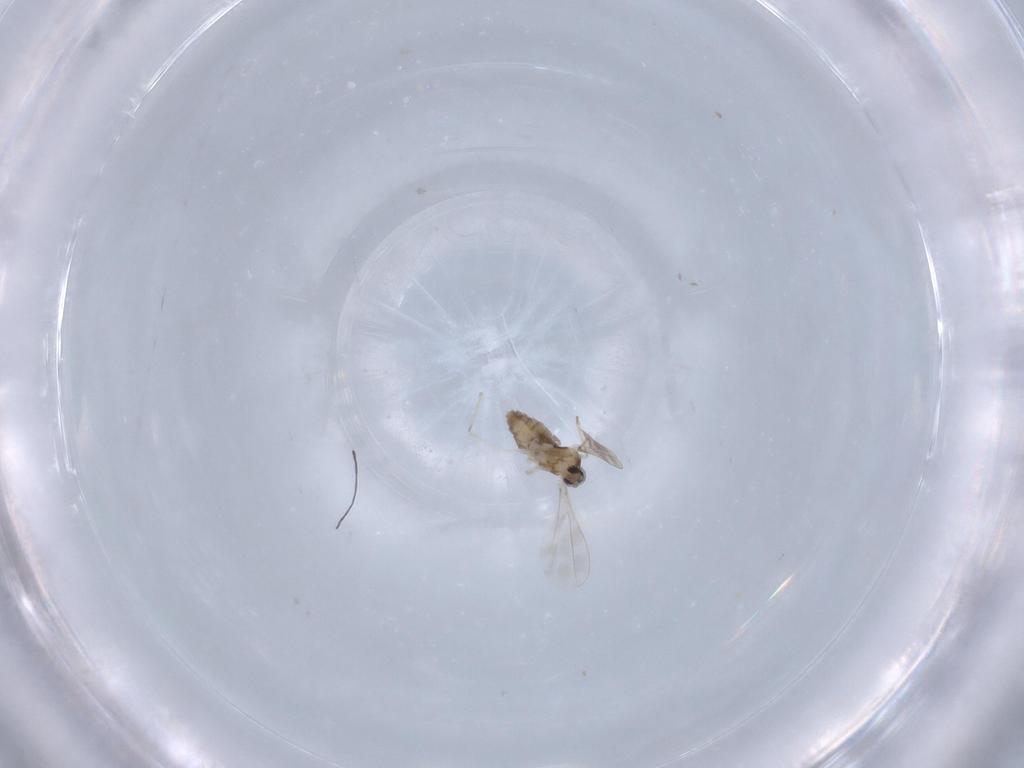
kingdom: Animalia
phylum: Arthropoda
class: Insecta
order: Diptera
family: Cecidomyiidae
